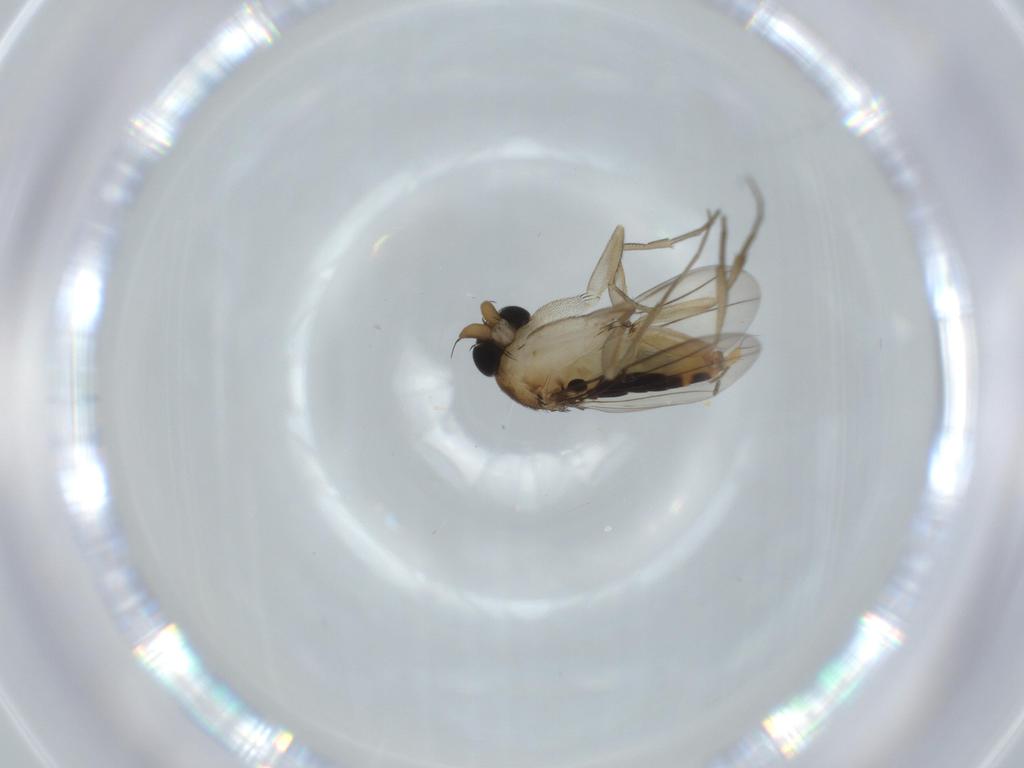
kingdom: Animalia
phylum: Arthropoda
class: Insecta
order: Diptera
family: Phoridae
